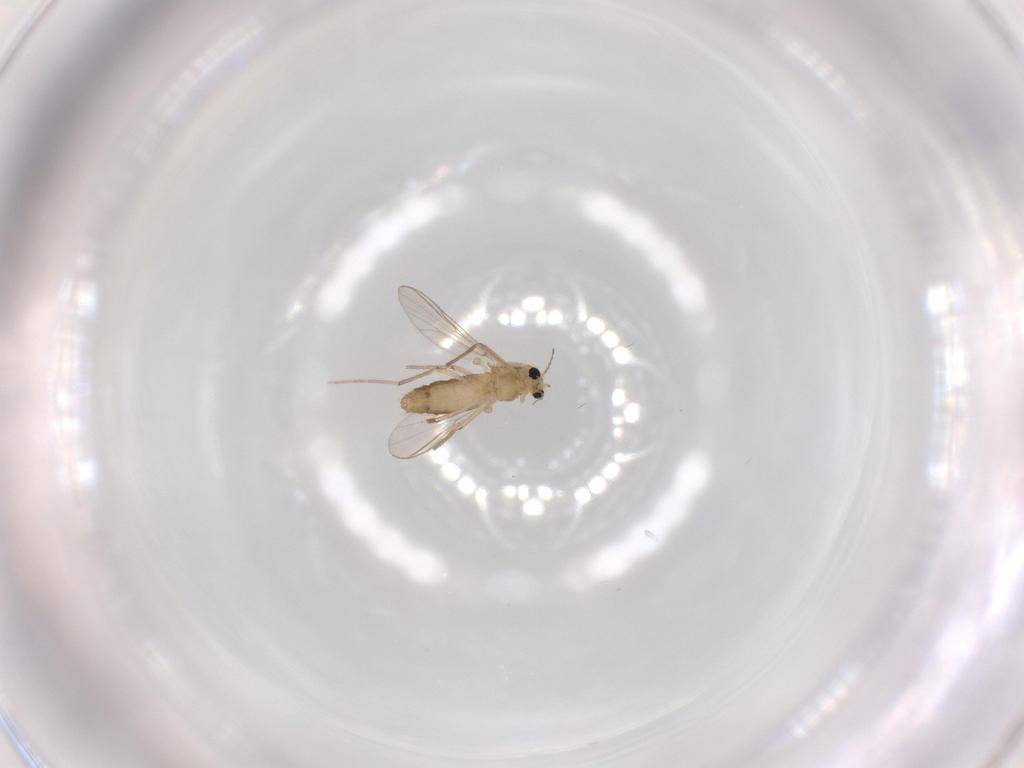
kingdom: Animalia
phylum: Arthropoda
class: Insecta
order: Diptera
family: Chironomidae
